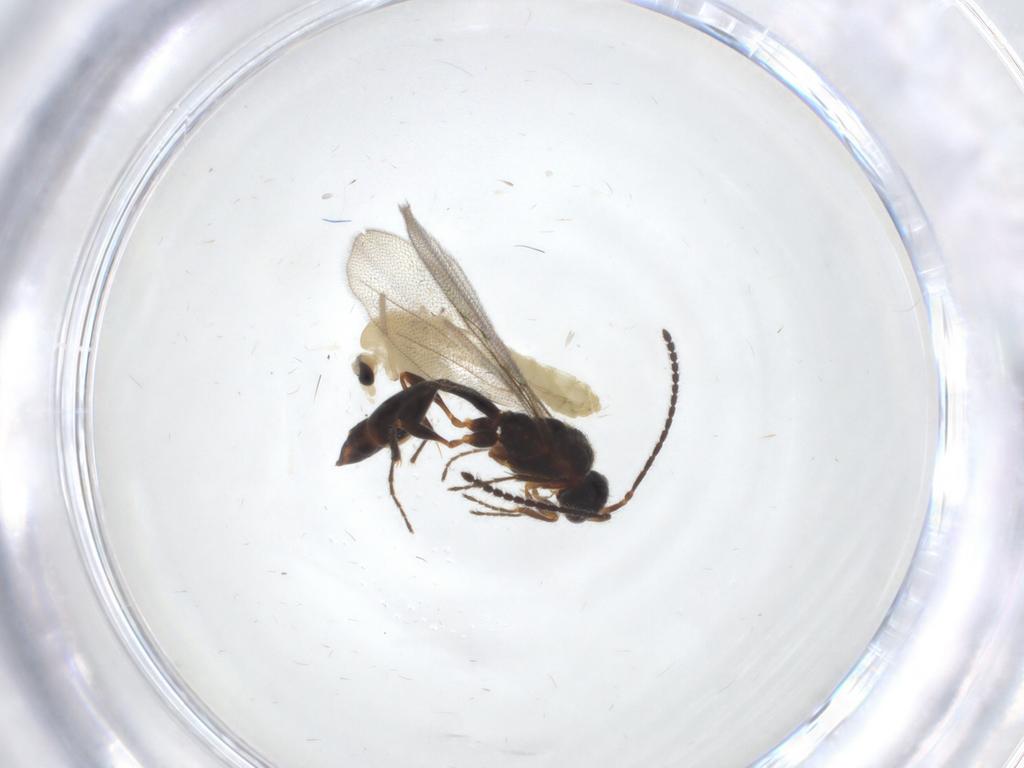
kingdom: Animalia
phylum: Arthropoda
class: Insecta
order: Diptera
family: Chironomidae
